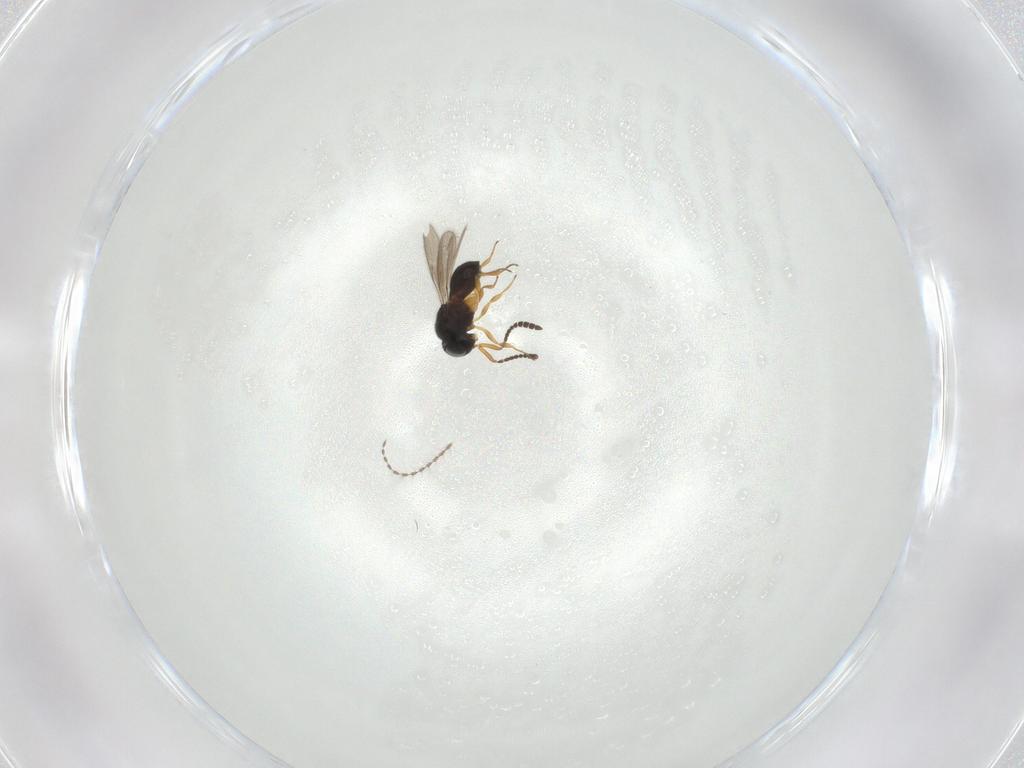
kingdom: Animalia
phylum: Arthropoda
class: Insecta
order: Hymenoptera
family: Scelionidae
